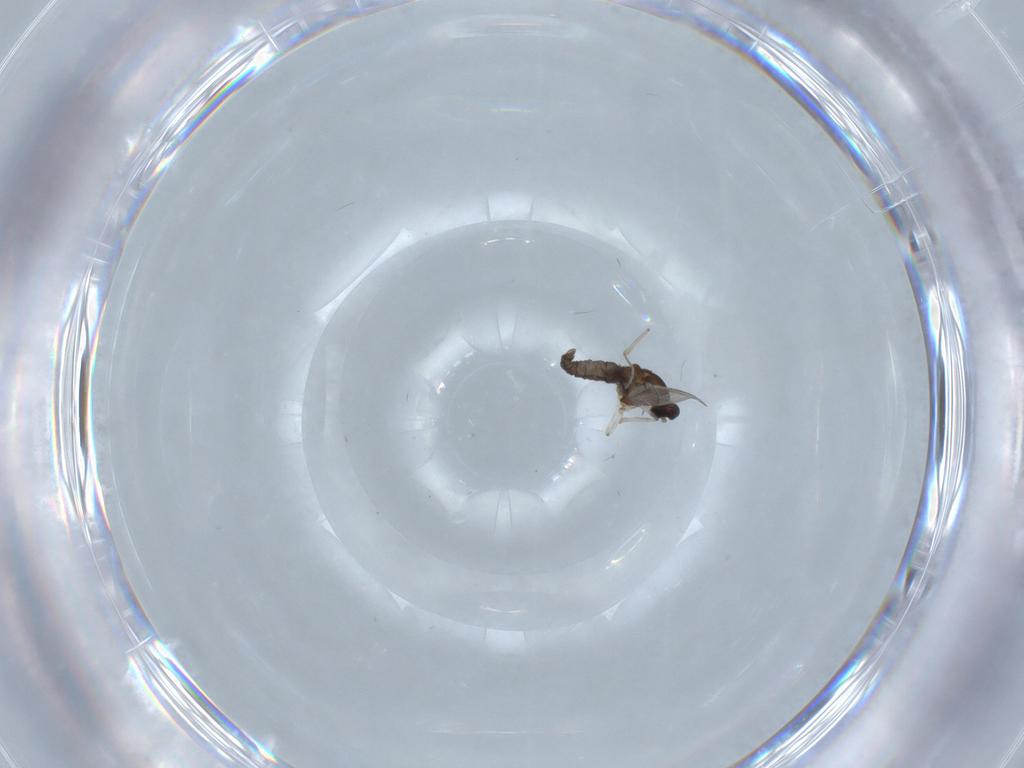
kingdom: Animalia
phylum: Arthropoda
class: Insecta
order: Diptera
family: Cecidomyiidae
